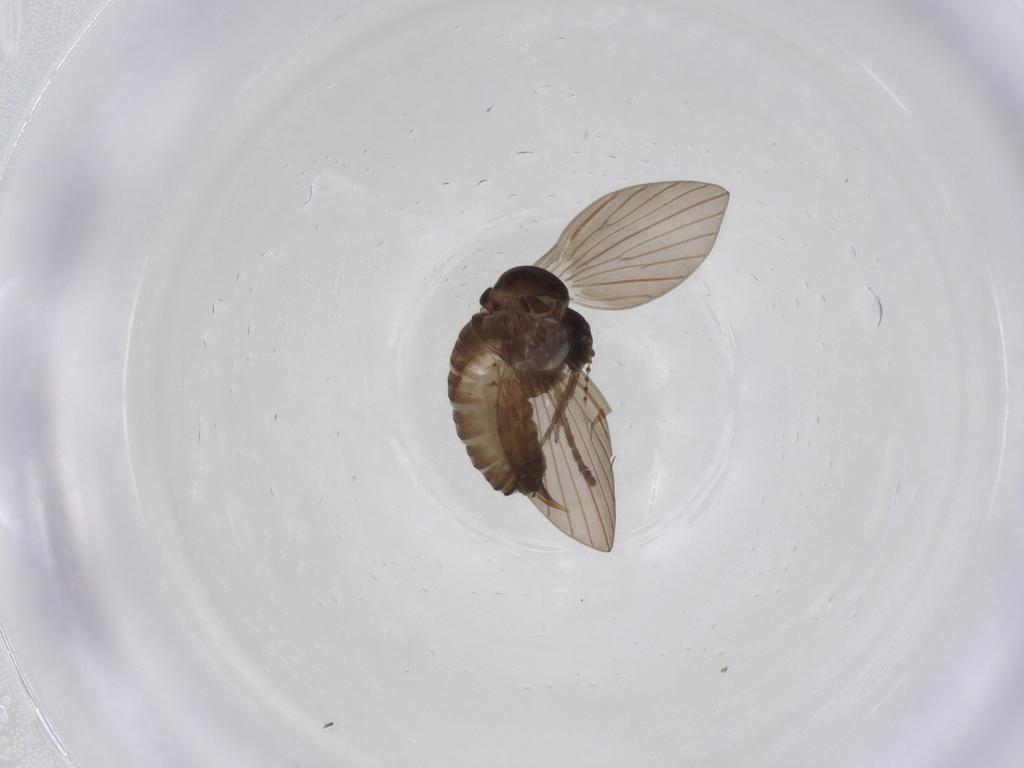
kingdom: Animalia
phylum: Arthropoda
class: Insecta
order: Diptera
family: Psychodidae
